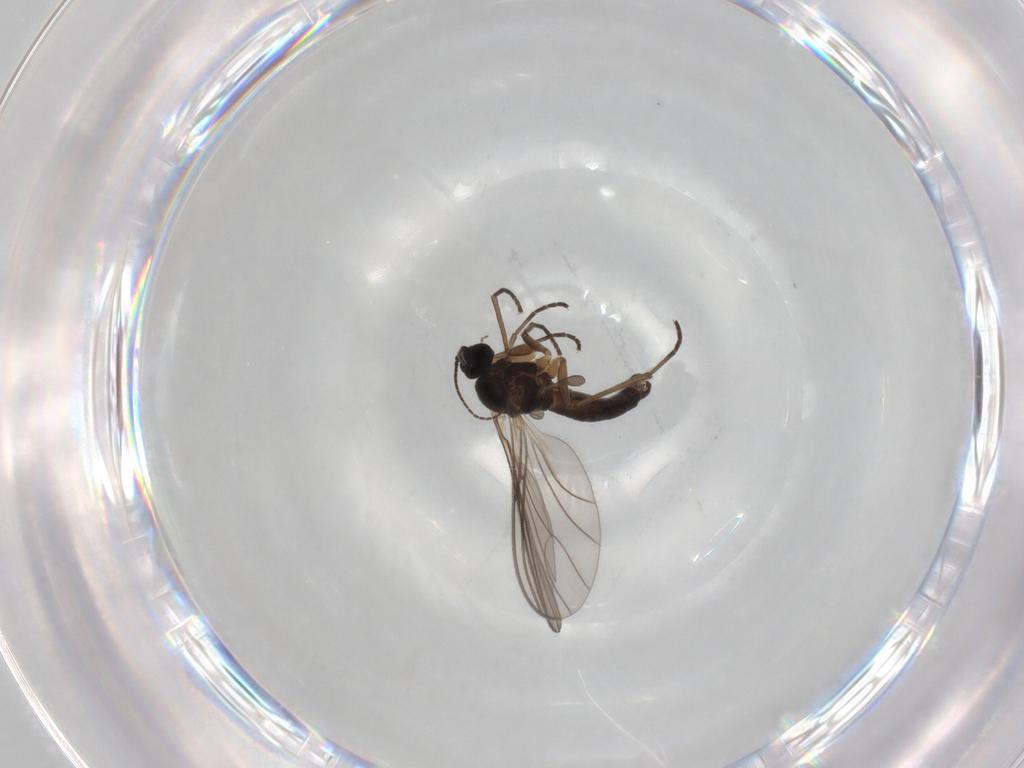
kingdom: Animalia
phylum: Arthropoda
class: Insecta
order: Diptera
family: Sciaridae
